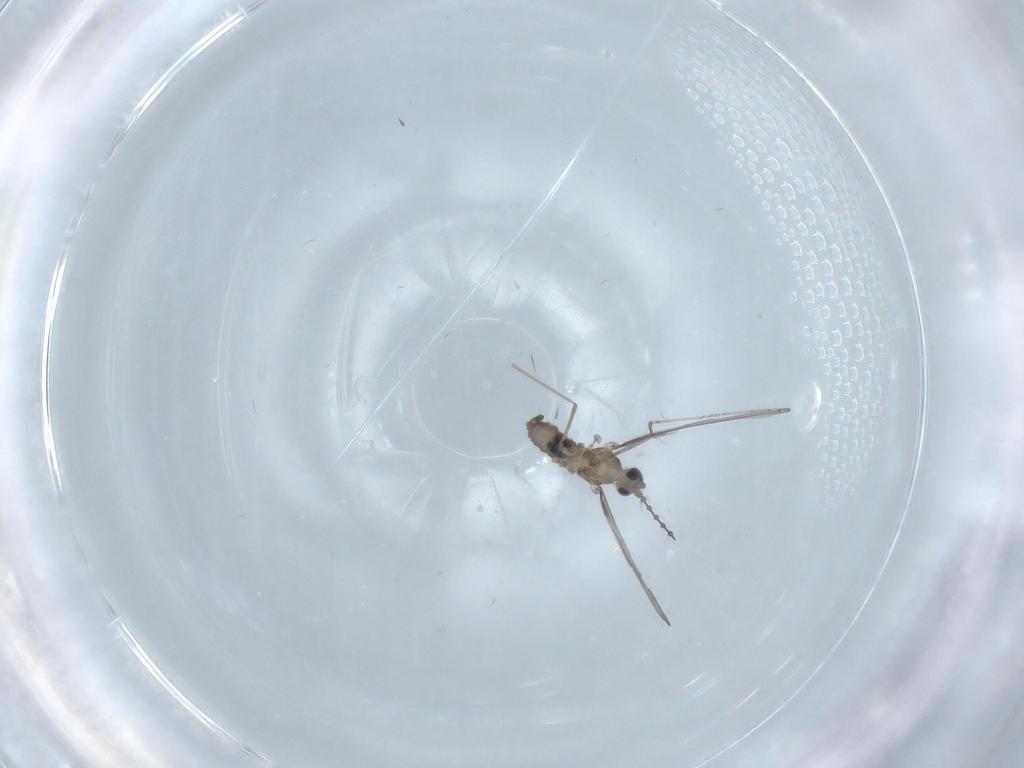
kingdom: Animalia
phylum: Arthropoda
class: Insecta
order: Diptera
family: Cecidomyiidae
